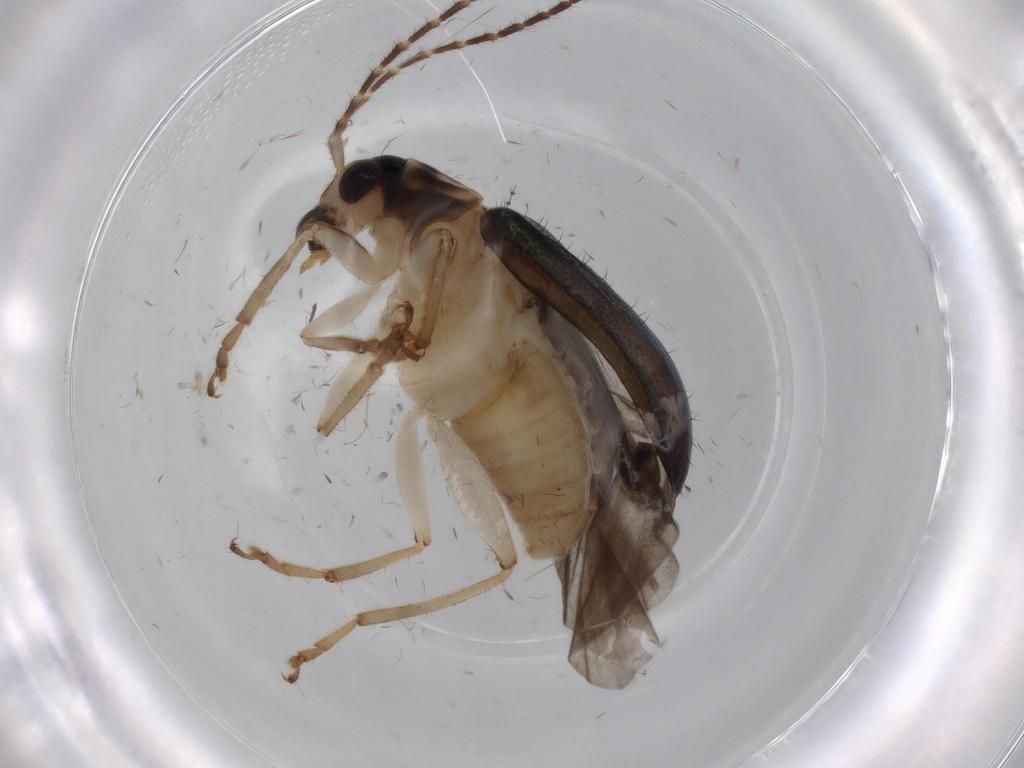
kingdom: Animalia
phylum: Arthropoda
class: Insecta
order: Coleoptera
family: Chrysomelidae
